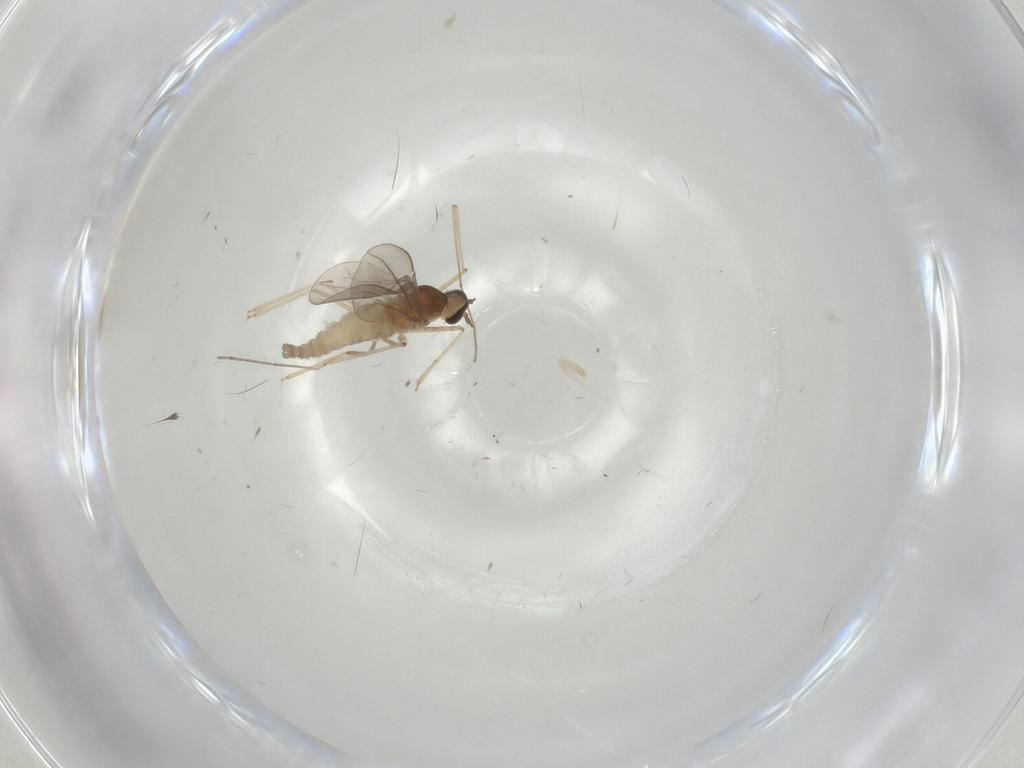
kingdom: Animalia
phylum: Arthropoda
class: Insecta
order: Diptera
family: Cecidomyiidae
